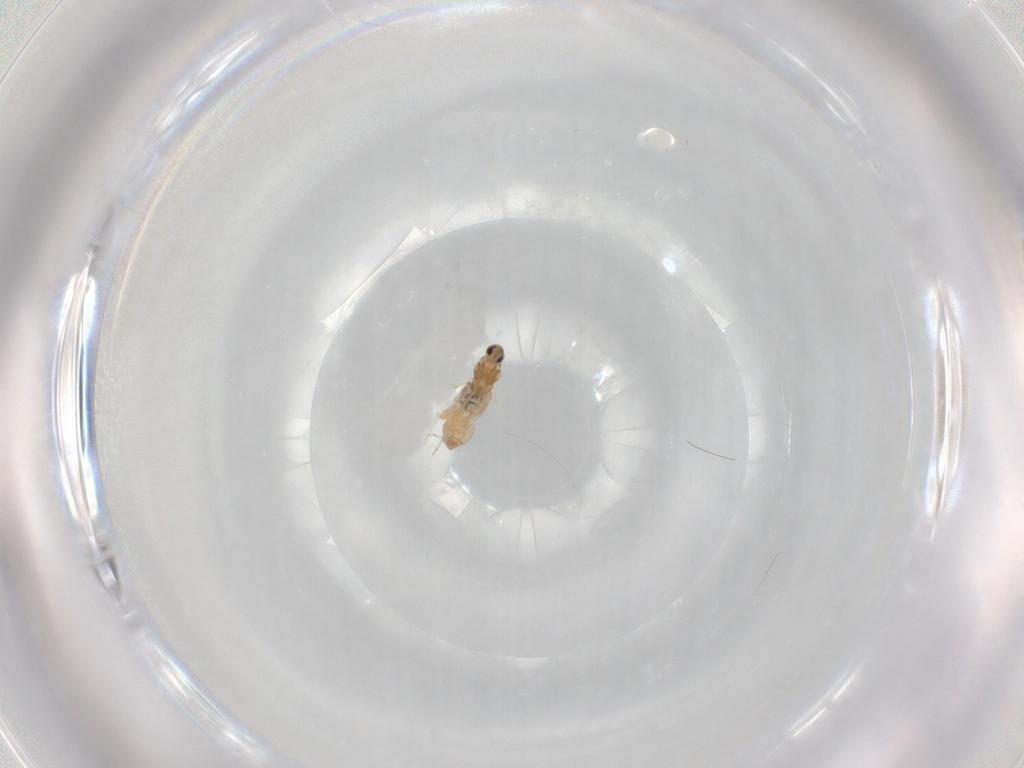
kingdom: Animalia
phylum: Arthropoda
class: Insecta
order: Diptera
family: Cecidomyiidae
